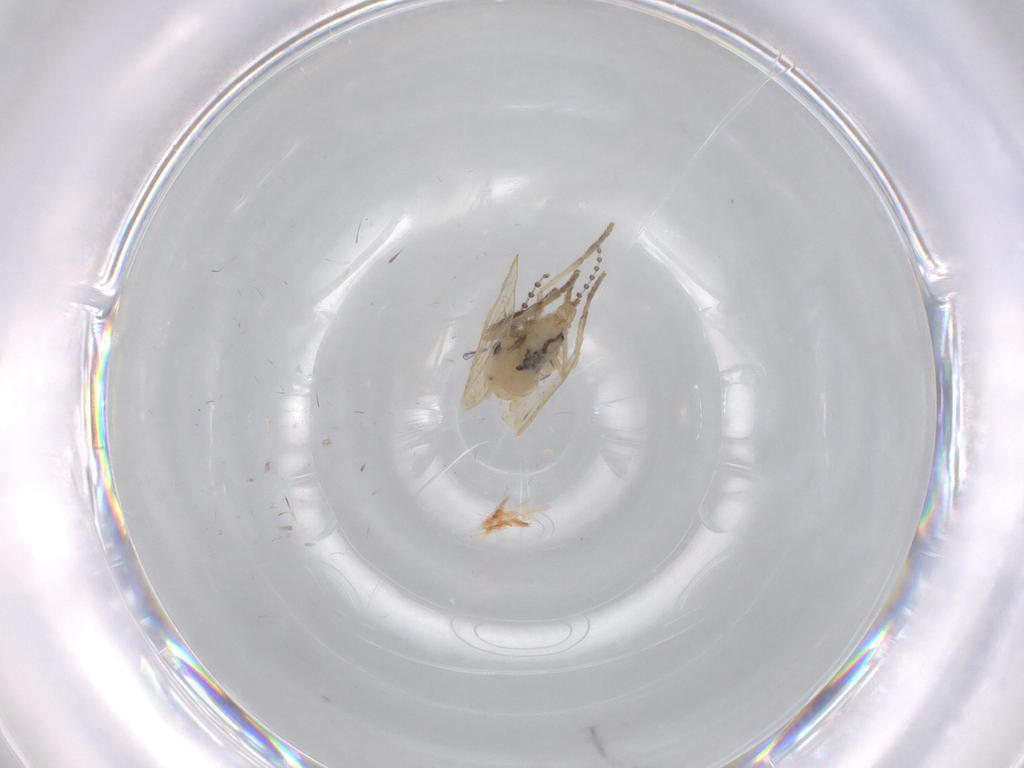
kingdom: Animalia
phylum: Arthropoda
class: Insecta
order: Diptera
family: Psychodidae
